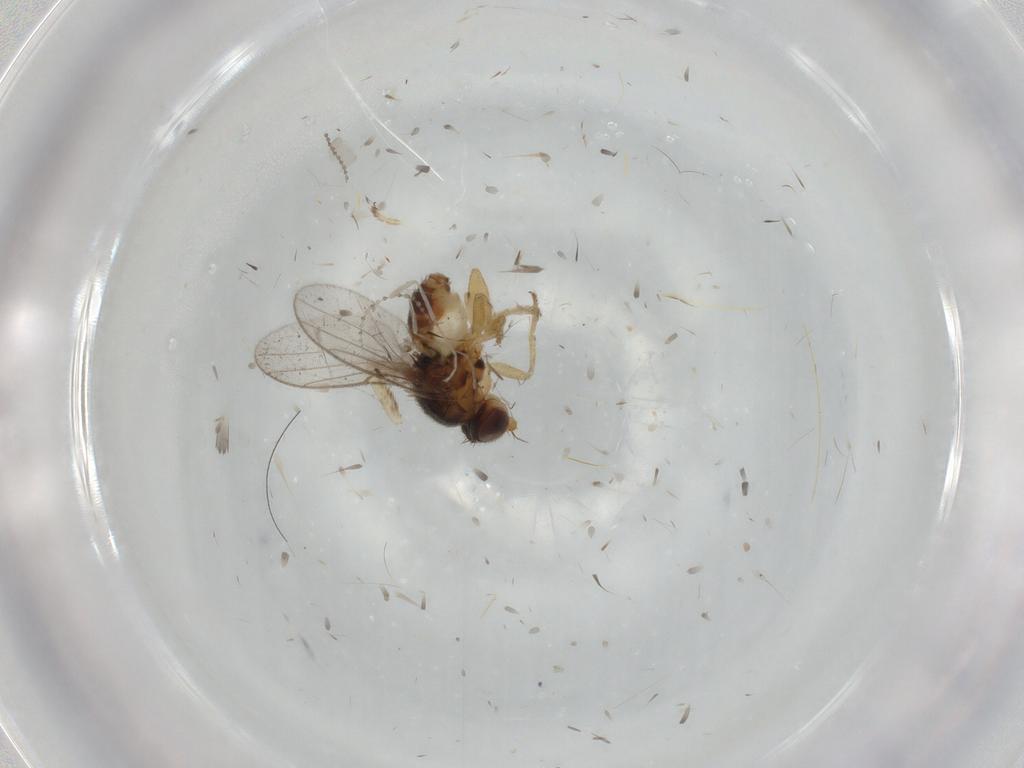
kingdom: Animalia
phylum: Arthropoda
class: Insecta
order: Diptera
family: Chloropidae
